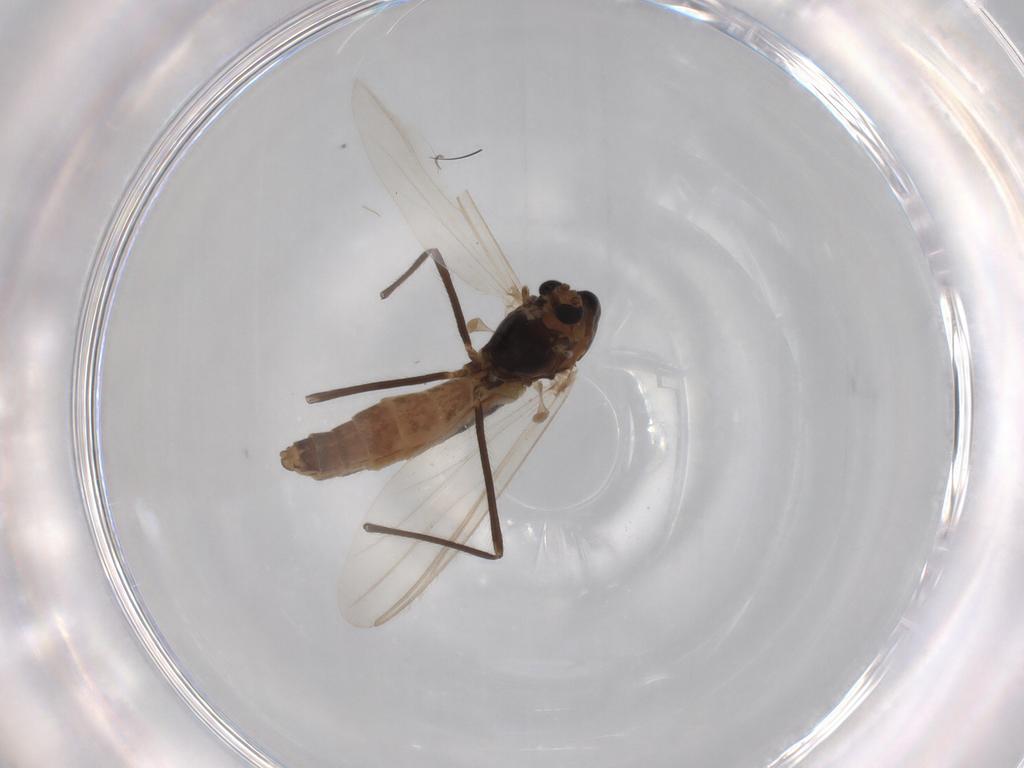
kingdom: Animalia
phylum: Arthropoda
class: Insecta
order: Diptera
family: Chironomidae
